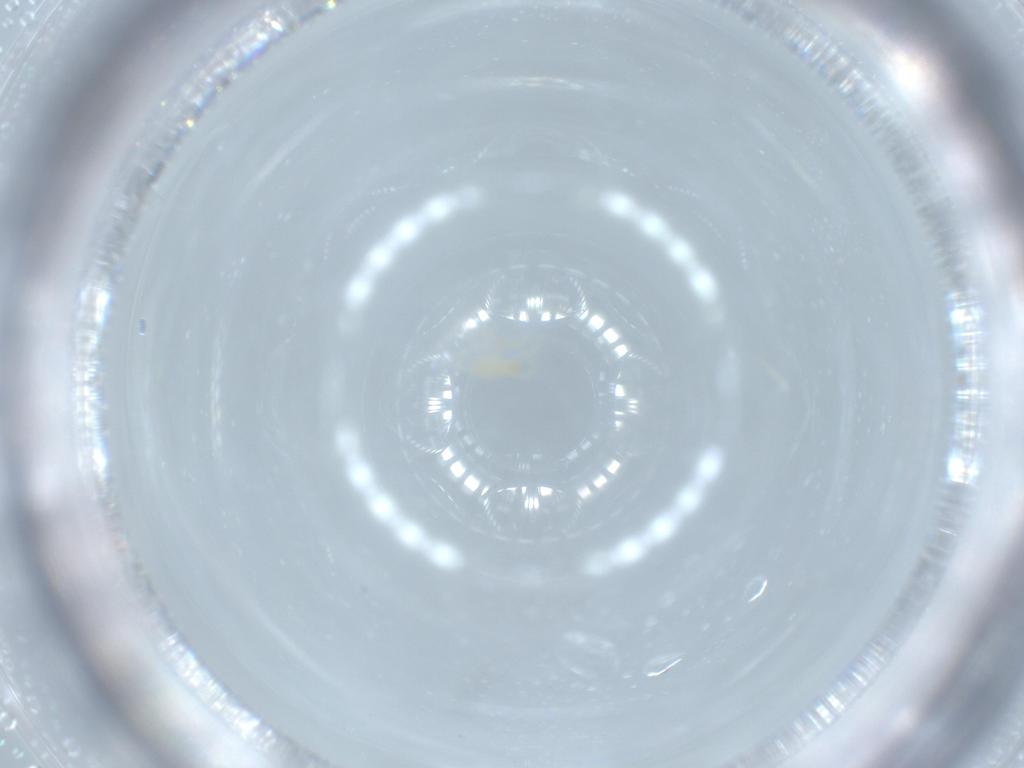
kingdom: Animalia
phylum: Arthropoda
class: Arachnida
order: Trombidiformes
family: Erythraeidae
